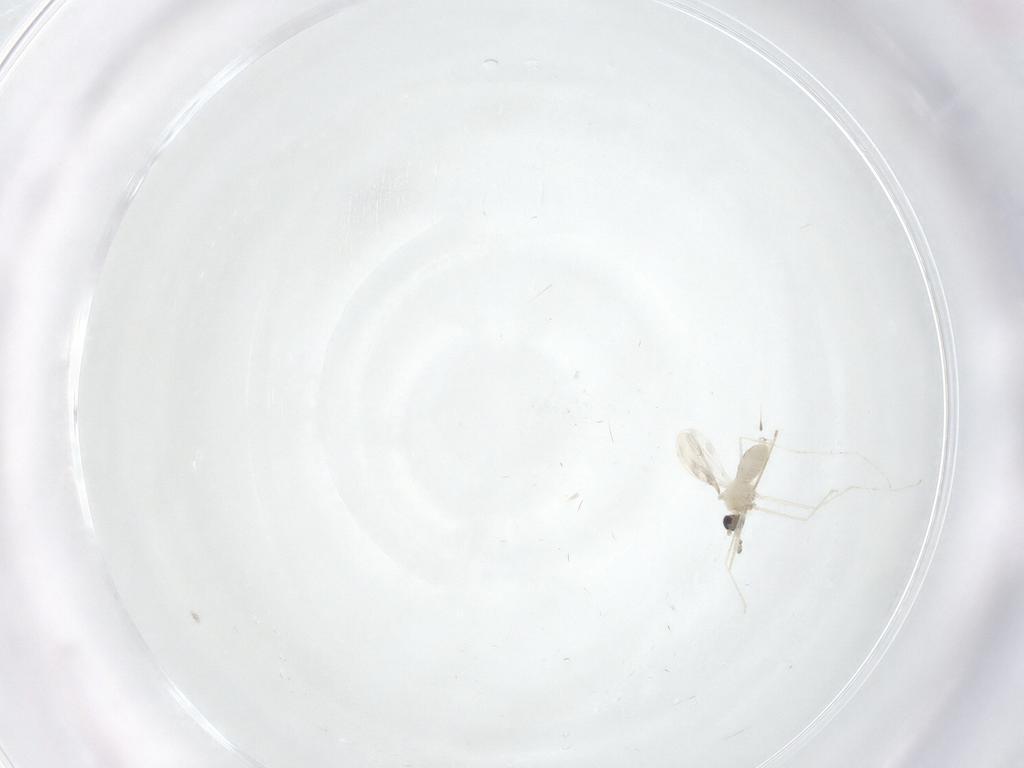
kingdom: Animalia
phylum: Arthropoda
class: Insecta
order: Diptera
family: Cecidomyiidae
